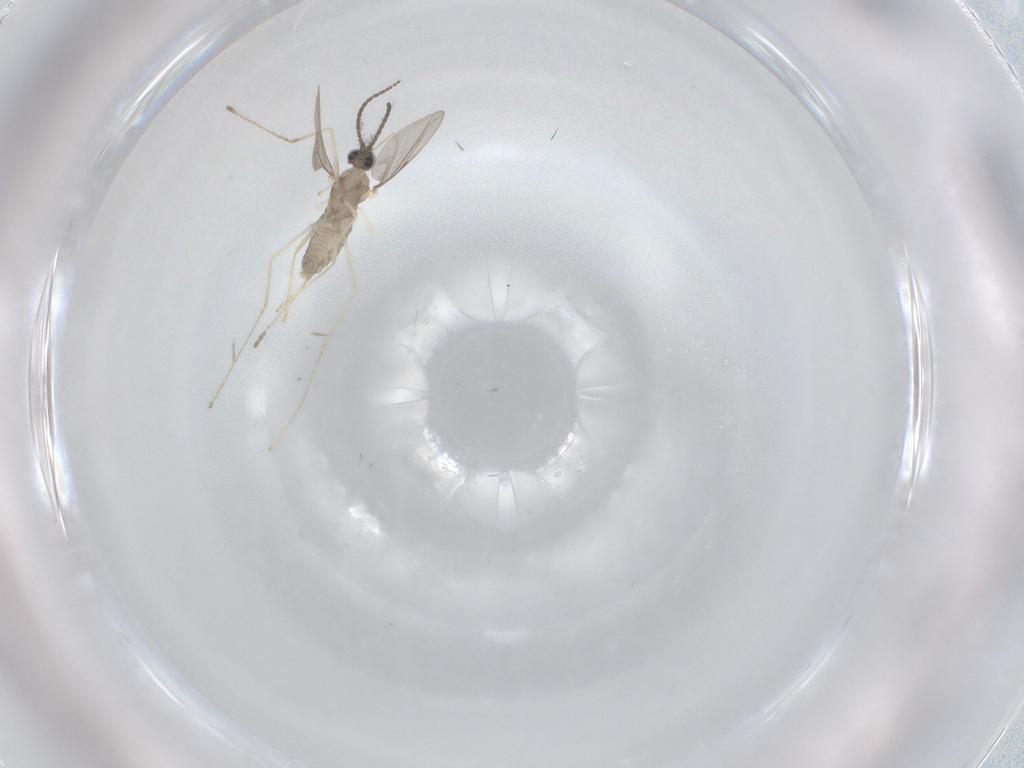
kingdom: Animalia
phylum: Arthropoda
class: Insecta
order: Diptera
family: Cecidomyiidae
